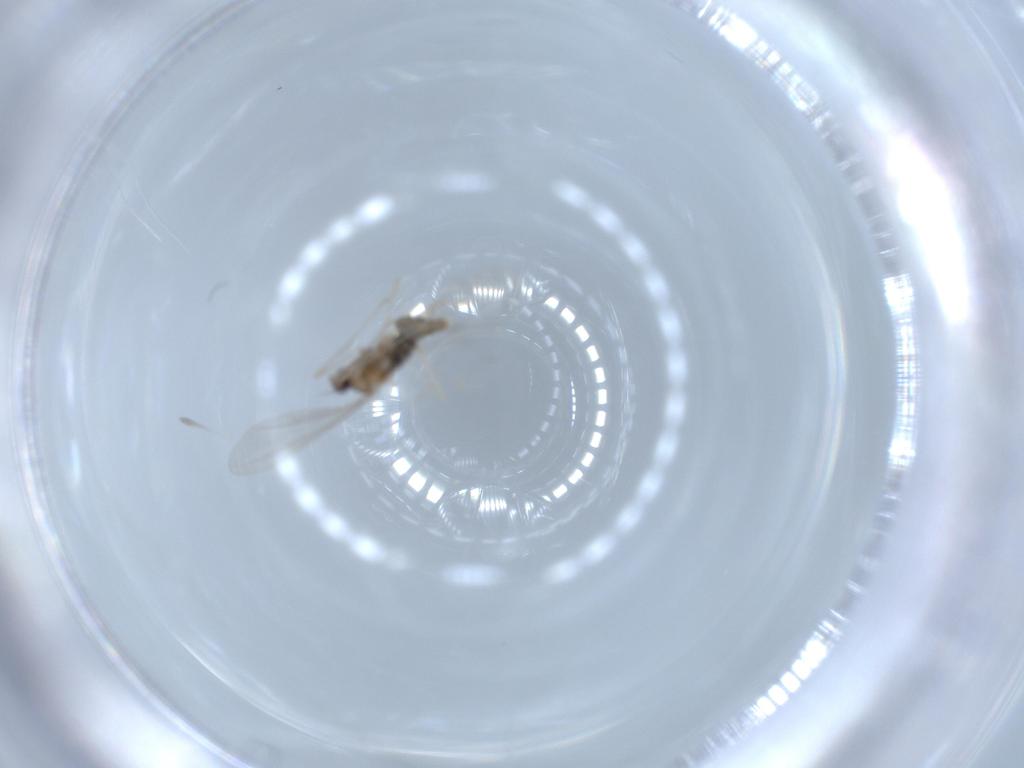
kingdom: Animalia
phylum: Arthropoda
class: Insecta
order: Diptera
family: Cecidomyiidae
